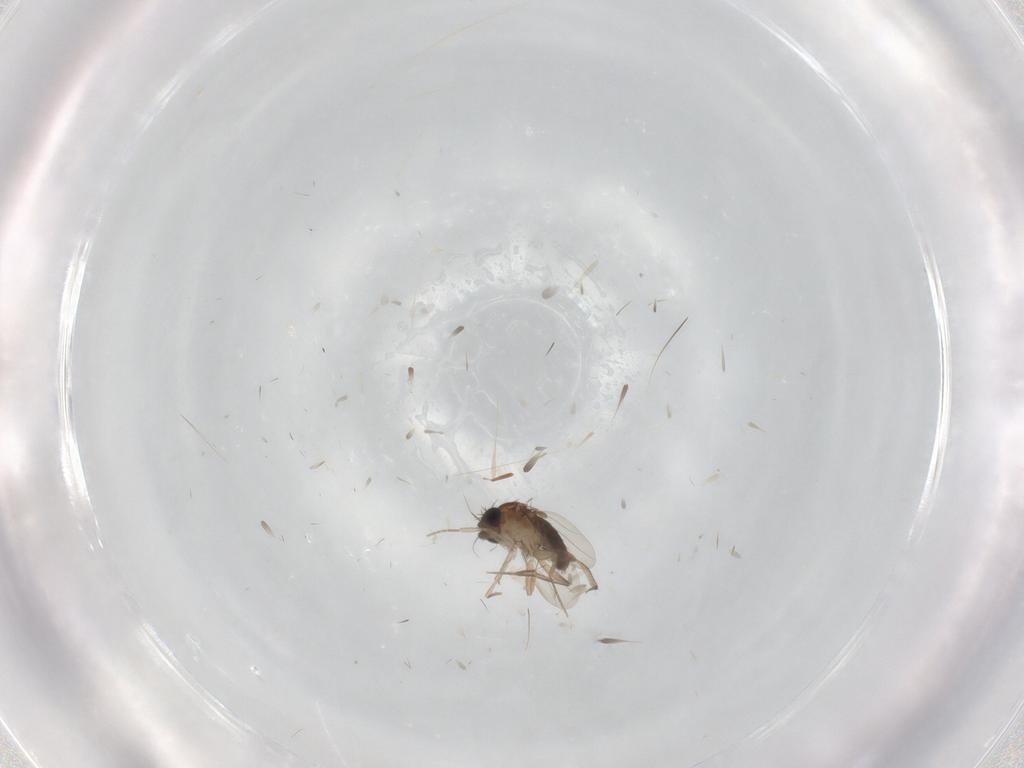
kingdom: Animalia
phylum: Arthropoda
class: Insecta
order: Diptera
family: Phoridae
